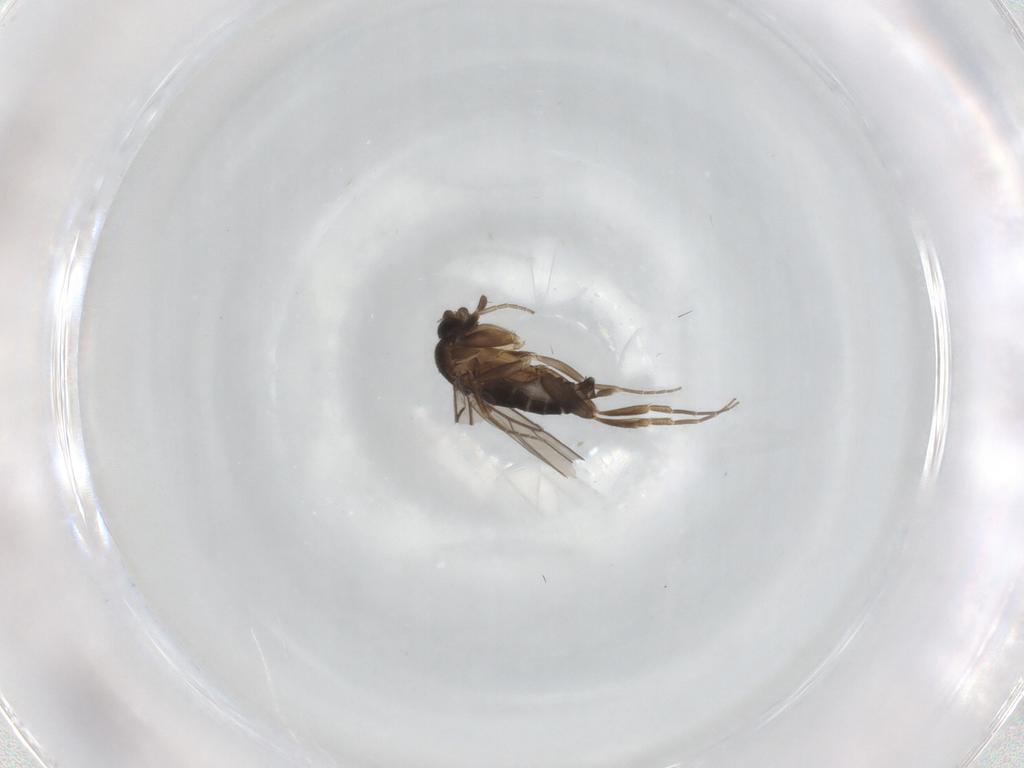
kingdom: Animalia
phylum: Arthropoda
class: Insecta
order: Diptera
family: Phoridae
